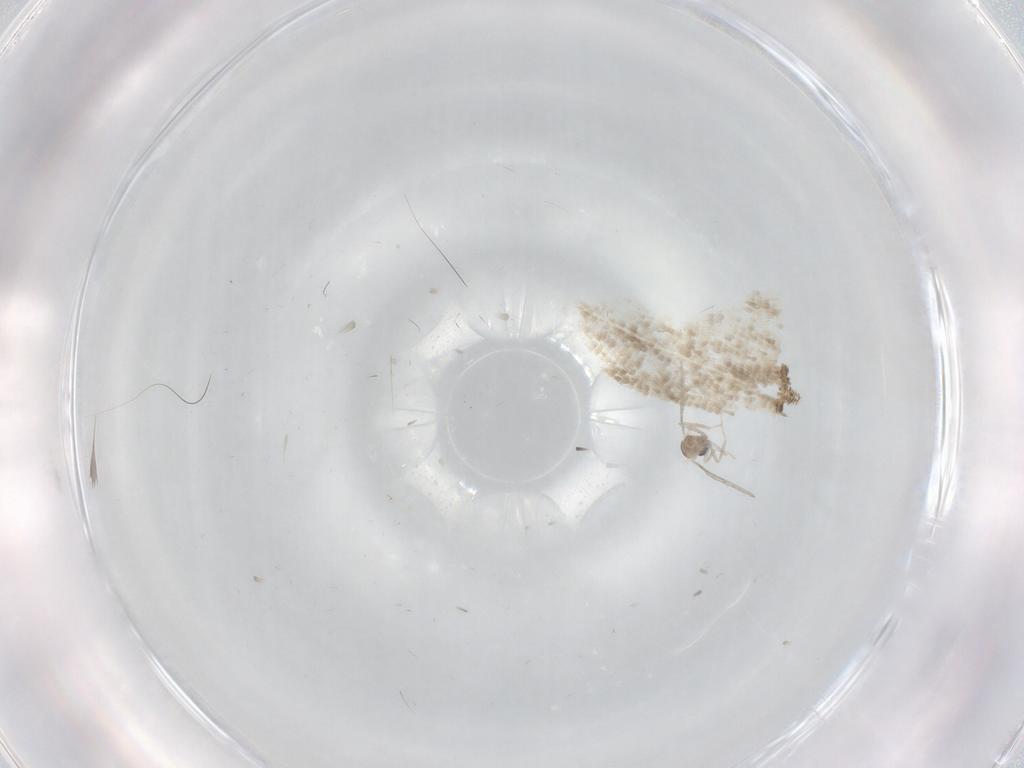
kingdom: Animalia
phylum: Arthropoda
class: Insecta
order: Diptera
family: Cecidomyiidae
